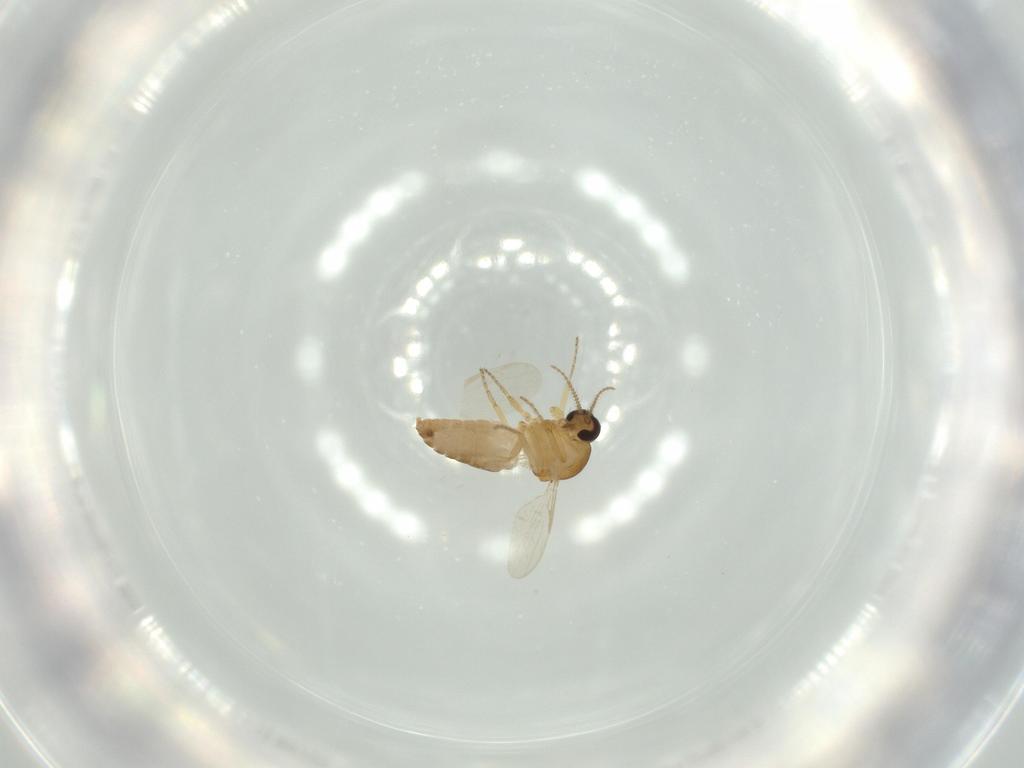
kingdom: Animalia
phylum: Arthropoda
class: Insecta
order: Diptera
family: Ceratopogonidae
